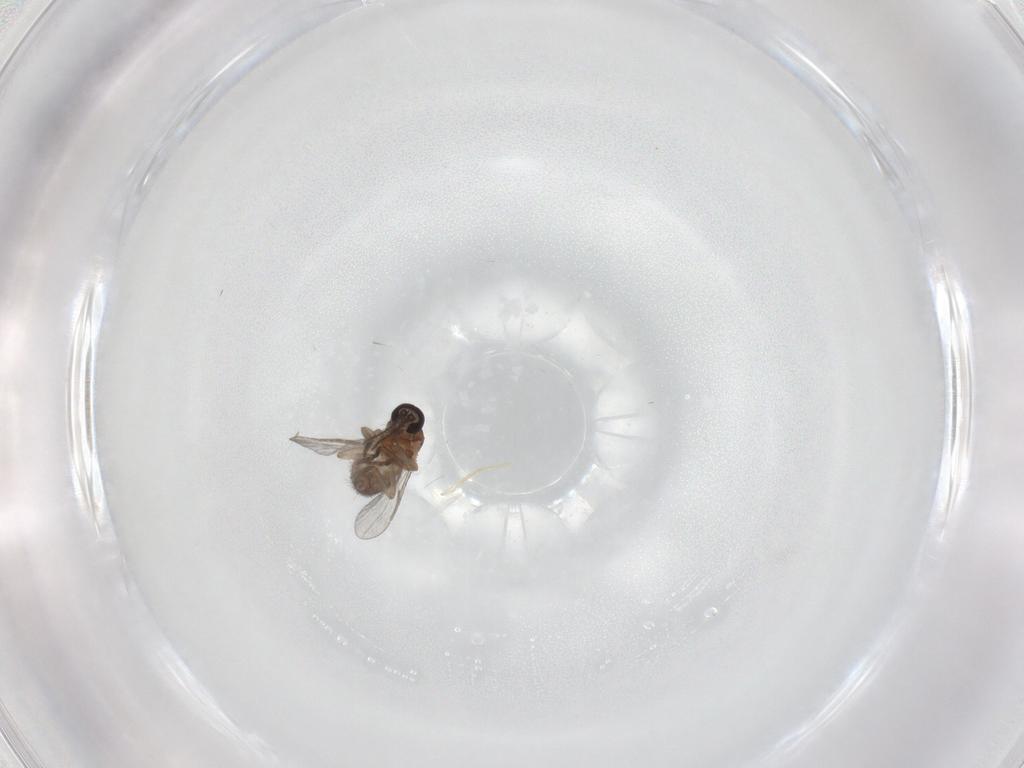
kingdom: Animalia
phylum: Arthropoda
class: Insecta
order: Diptera
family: Ceratopogonidae
